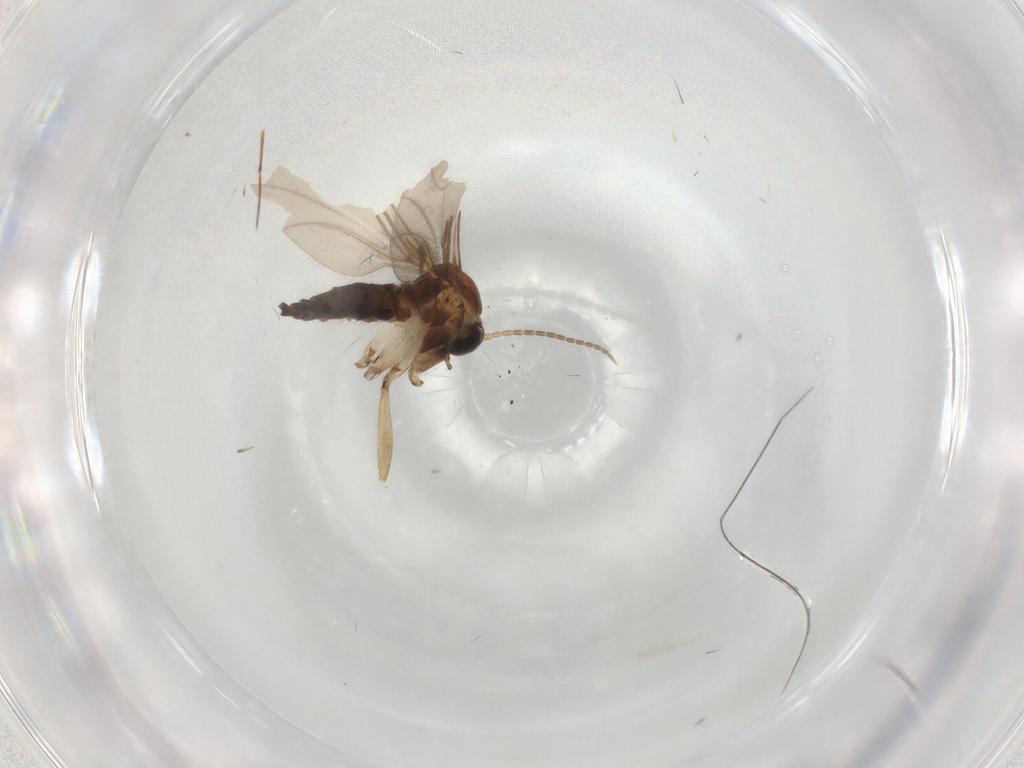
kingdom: Animalia
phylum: Arthropoda
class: Insecta
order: Diptera
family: Sciaridae
